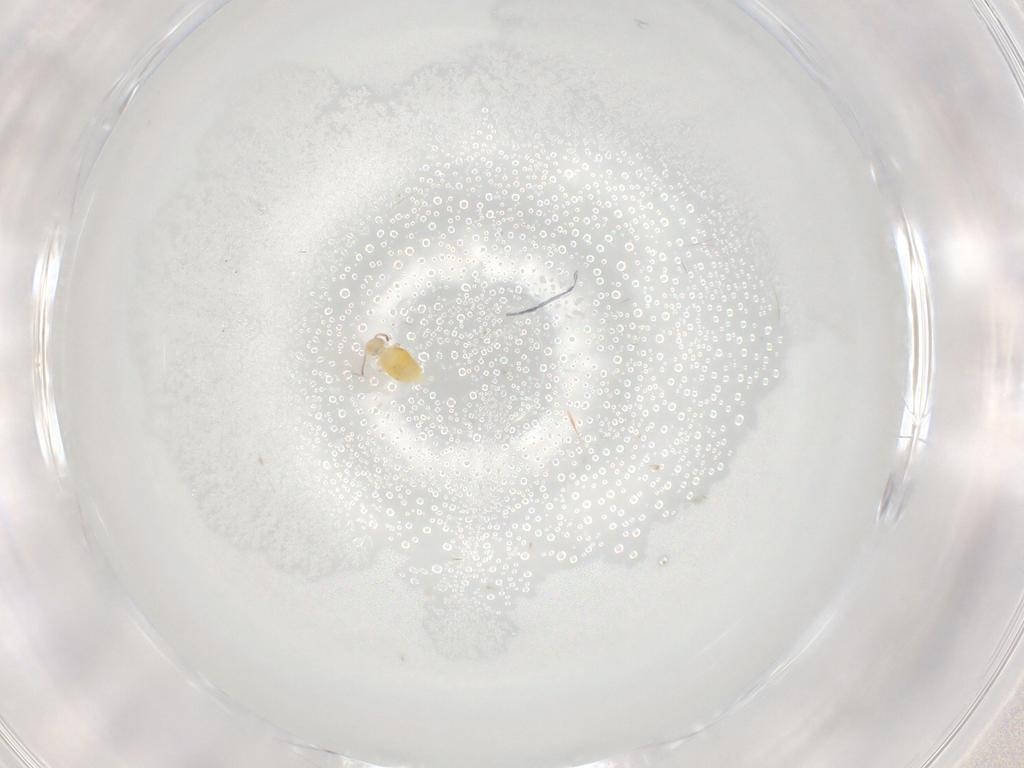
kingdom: Animalia
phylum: Arthropoda
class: Collembola
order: Symphypleona
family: Bourletiellidae
